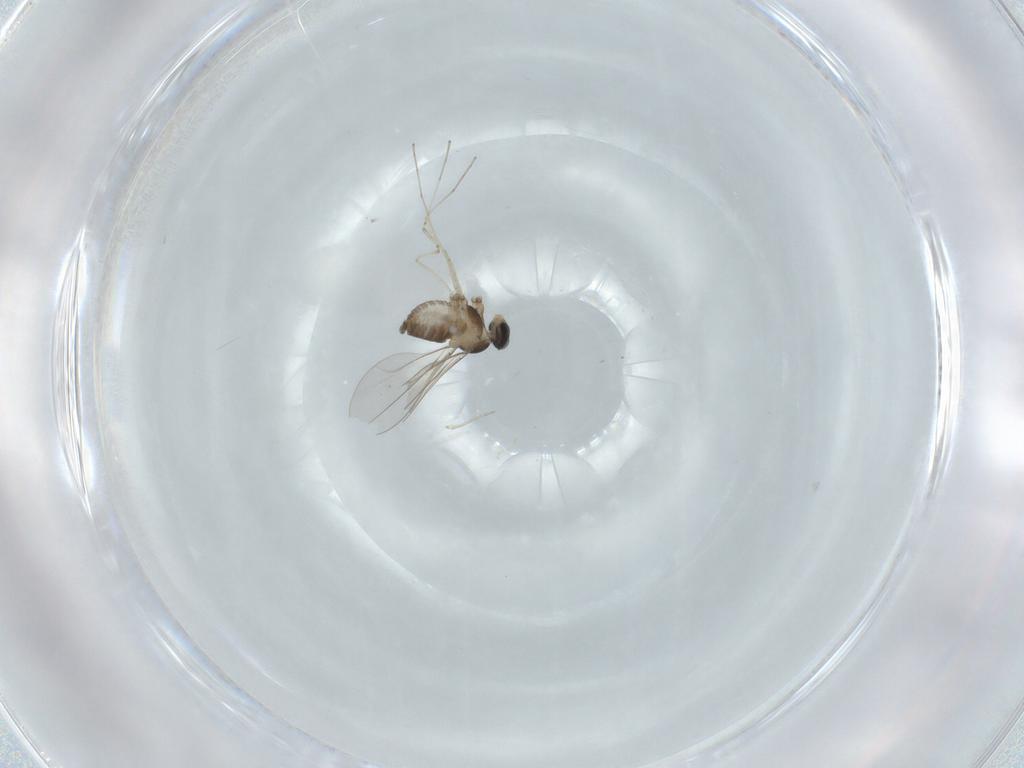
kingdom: Animalia
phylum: Arthropoda
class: Insecta
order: Diptera
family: Cecidomyiidae
